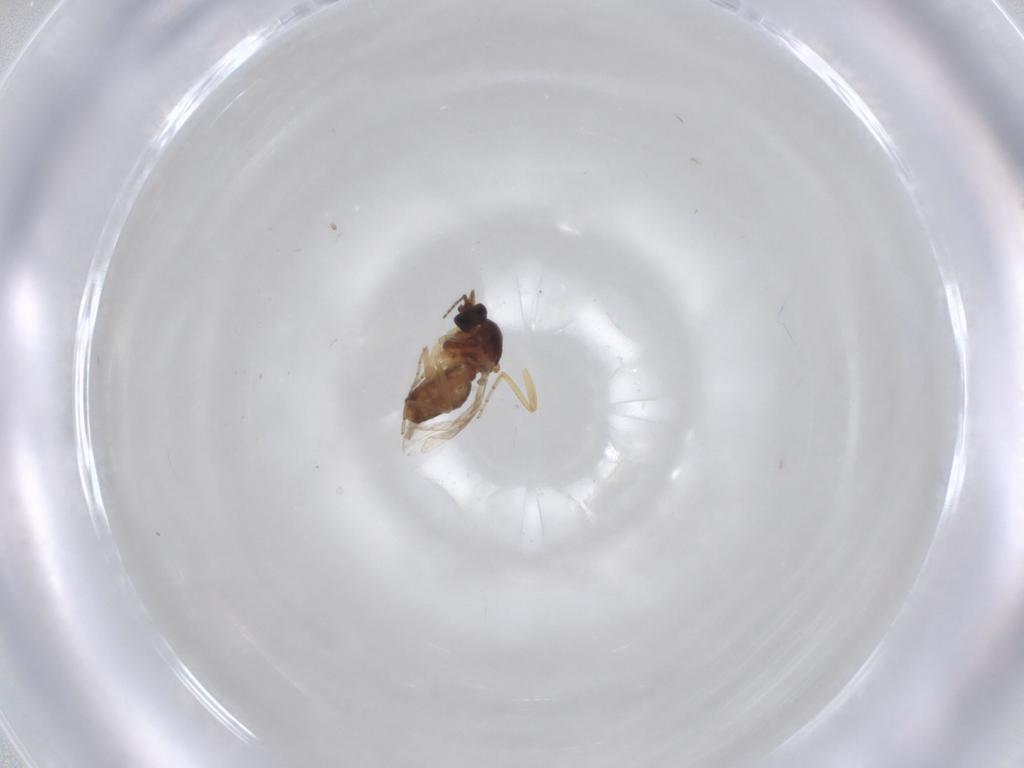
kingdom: Animalia
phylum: Arthropoda
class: Insecta
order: Diptera
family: Ceratopogonidae
